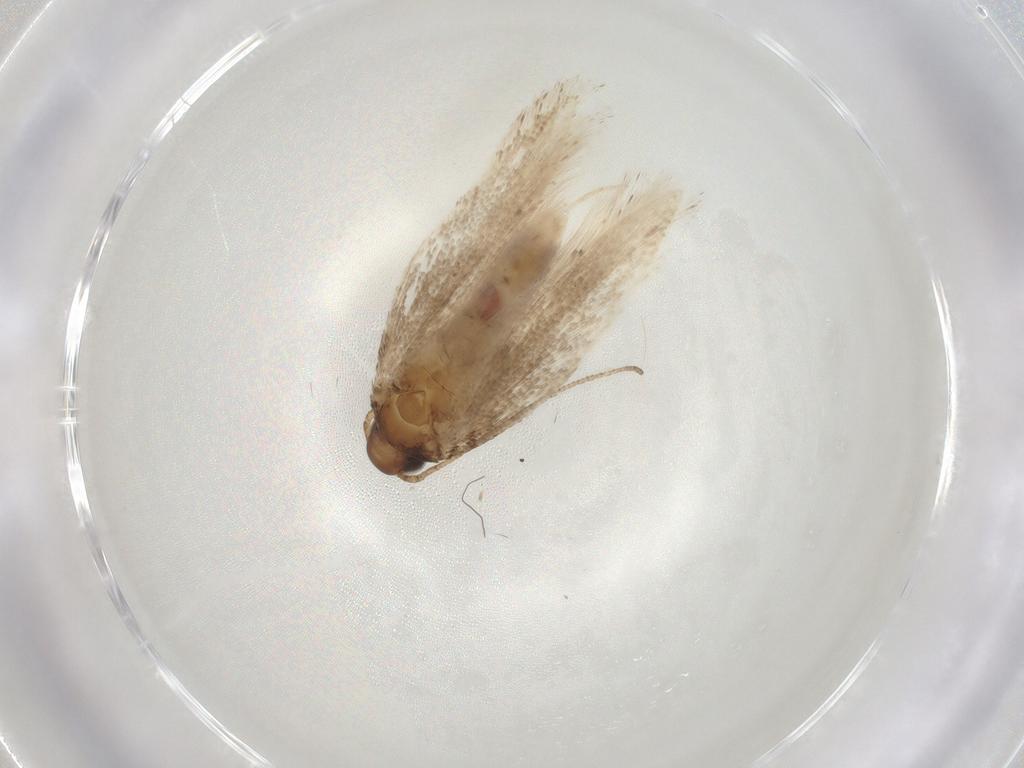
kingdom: Animalia
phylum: Arthropoda
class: Insecta
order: Lepidoptera
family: Gelechiidae
